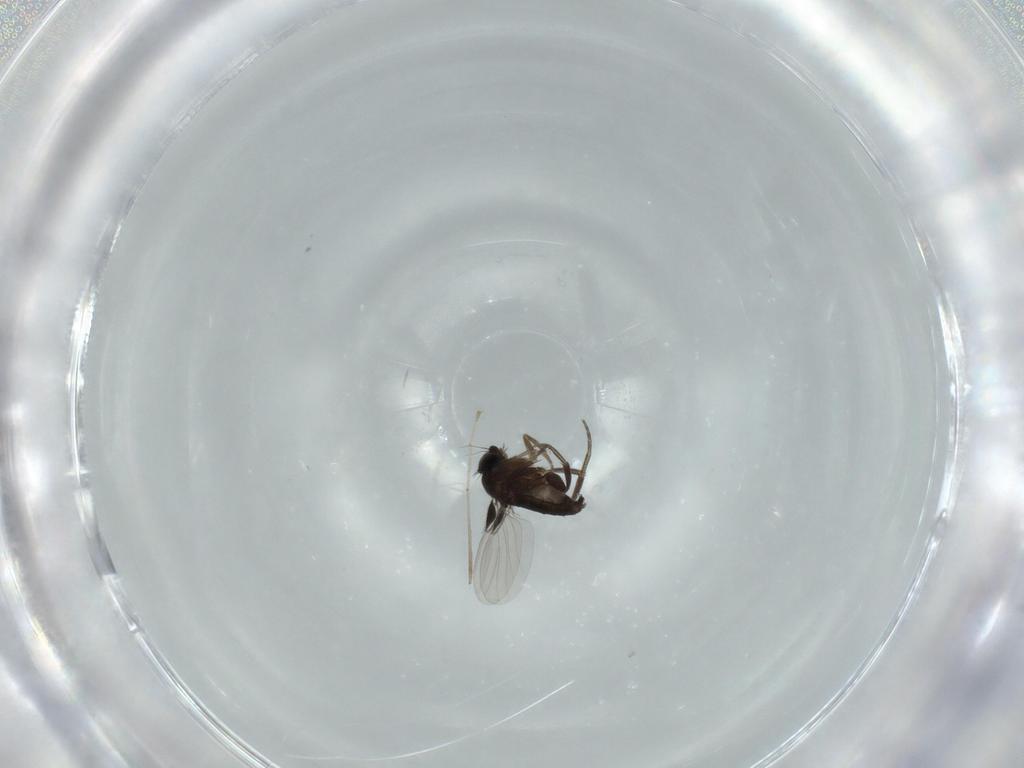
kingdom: Animalia
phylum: Arthropoda
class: Insecta
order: Diptera
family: Phoridae
